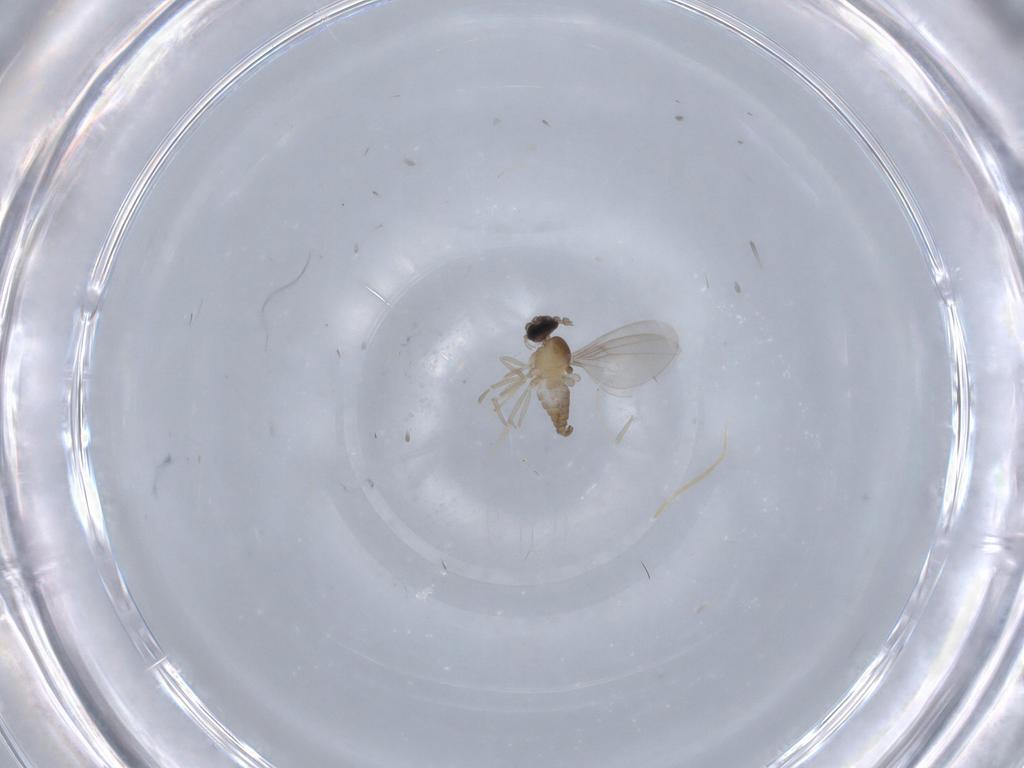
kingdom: Animalia
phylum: Arthropoda
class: Insecta
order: Diptera
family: Cecidomyiidae
